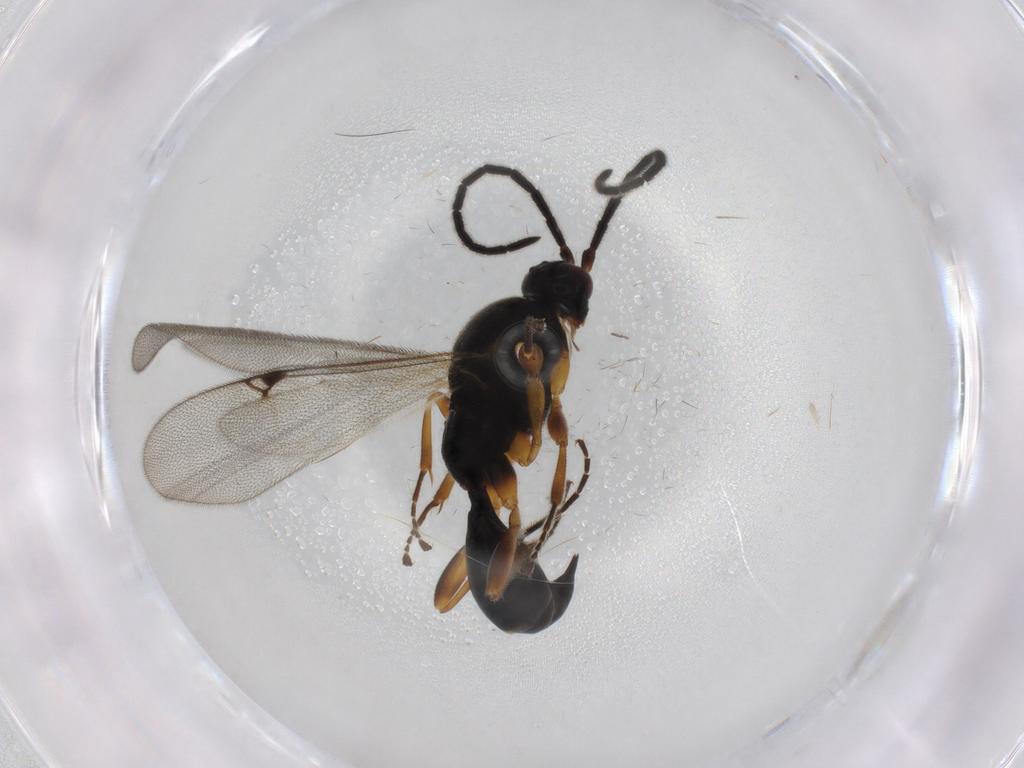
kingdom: Animalia
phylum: Arthropoda
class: Insecta
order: Hymenoptera
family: Proctotrupidae
